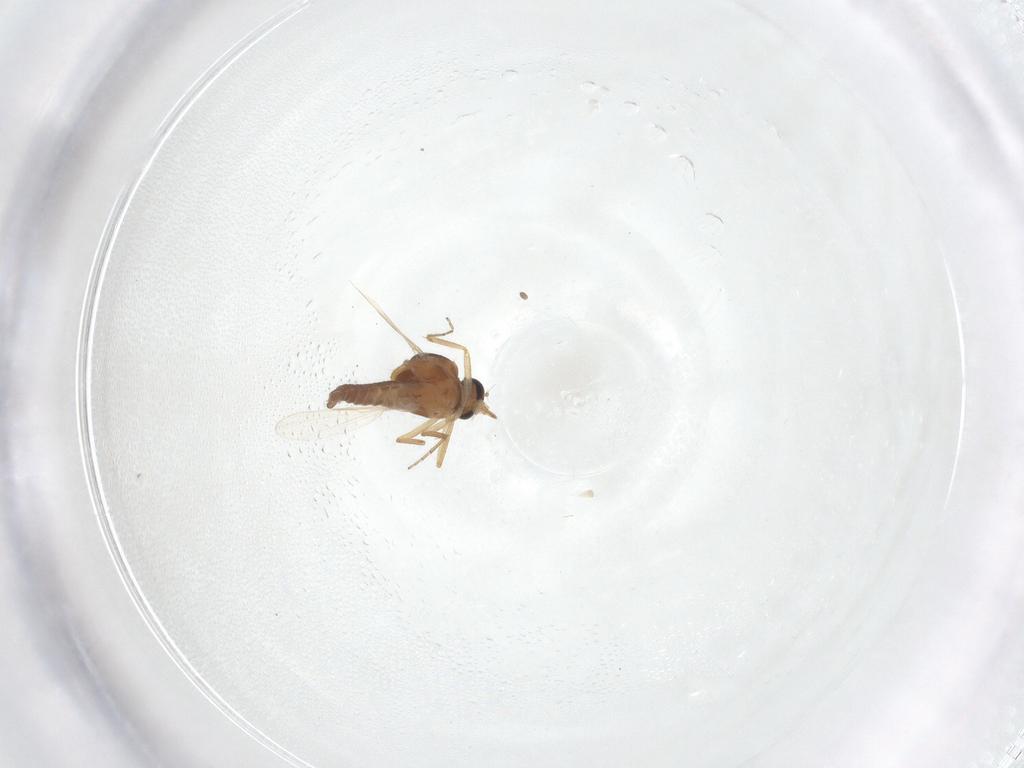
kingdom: Animalia
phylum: Arthropoda
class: Insecta
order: Diptera
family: Ceratopogonidae
